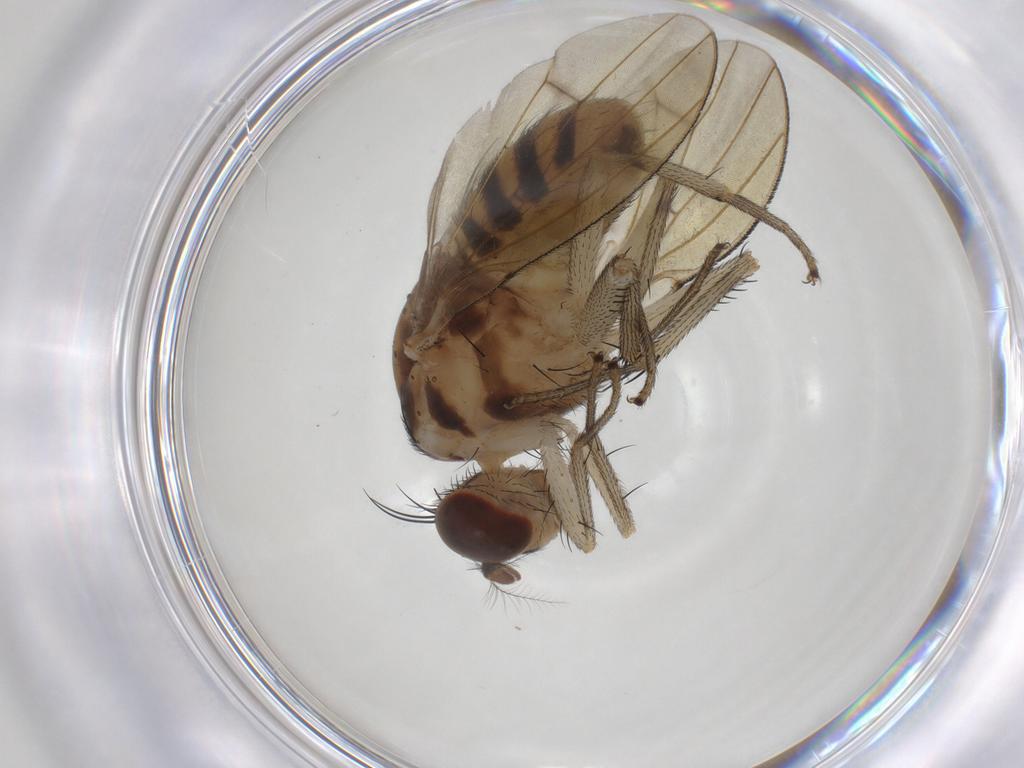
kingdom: Animalia
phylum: Arthropoda
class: Insecta
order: Diptera
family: Lauxaniidae
